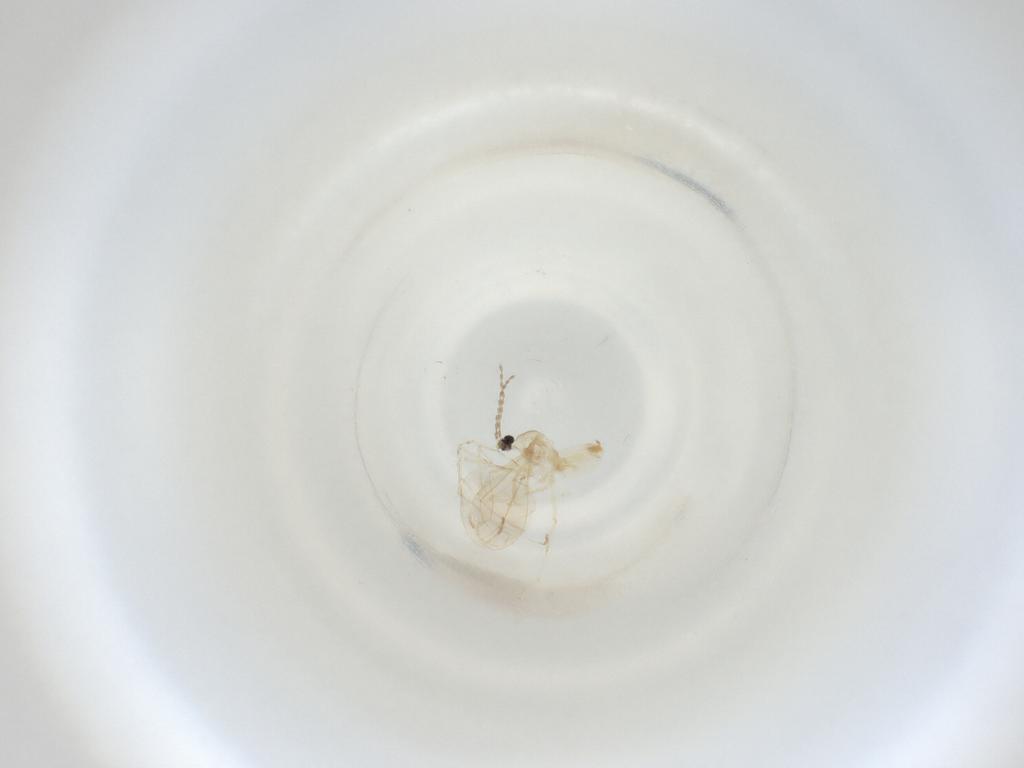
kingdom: Animalia
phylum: Arthropoda
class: Insecta
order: Diptera
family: Cecidomyiidae
